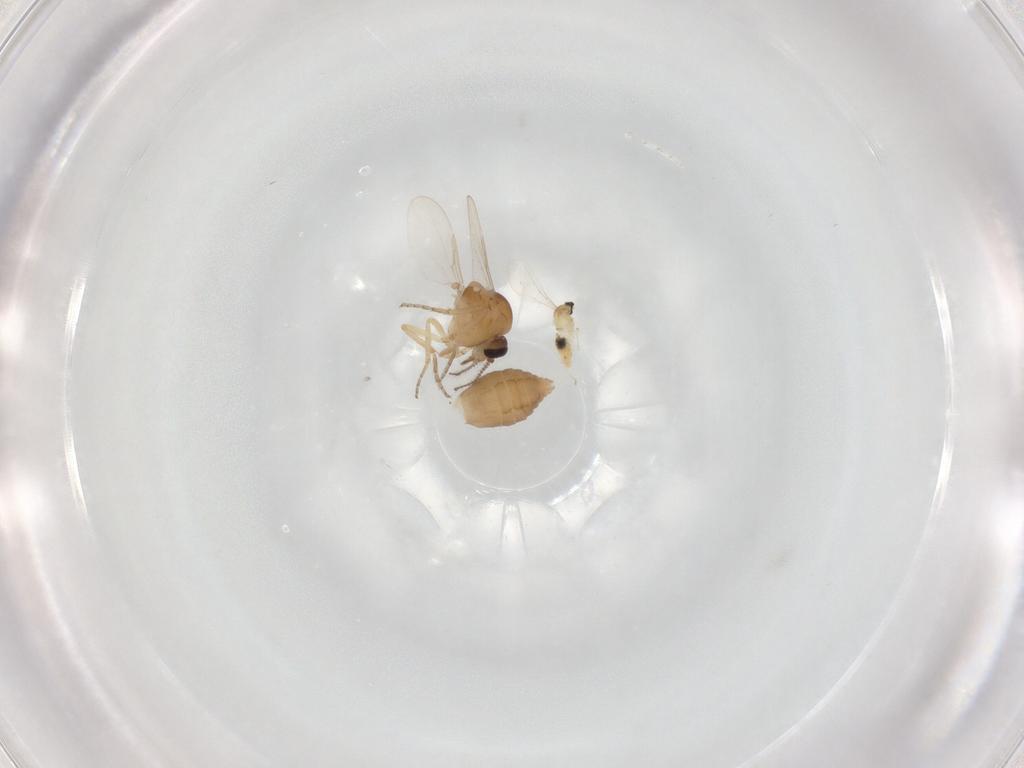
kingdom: Animalia
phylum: Arthropoda
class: Insecta
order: Diptera
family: Ceratopogonidae
